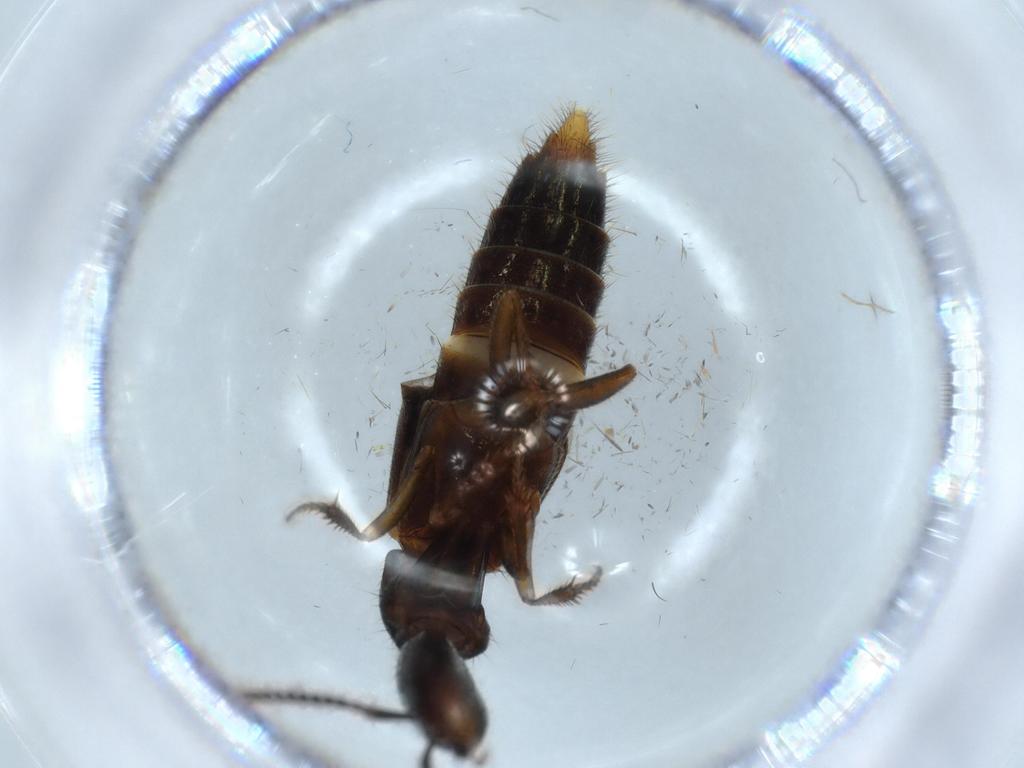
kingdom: Animalia
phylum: Arthropoda
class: Insecta
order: Coleoptera
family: Staphylinidae
